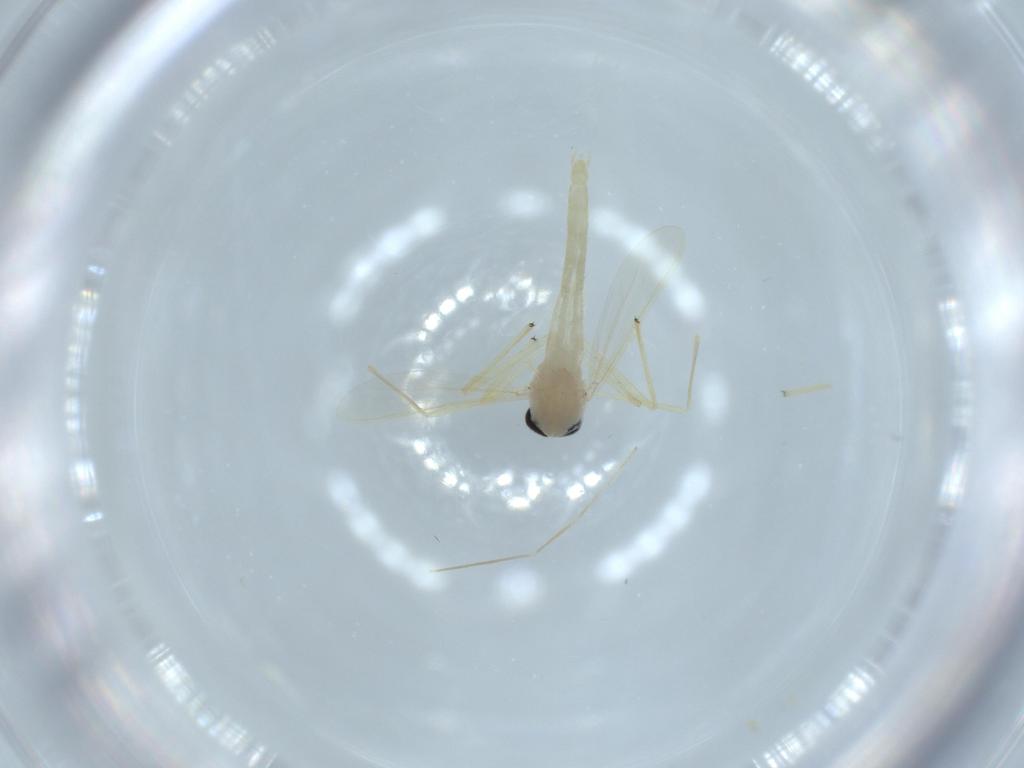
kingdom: Animalia
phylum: Arthropoda
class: Insecta
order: Diptera
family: Chironomidae
